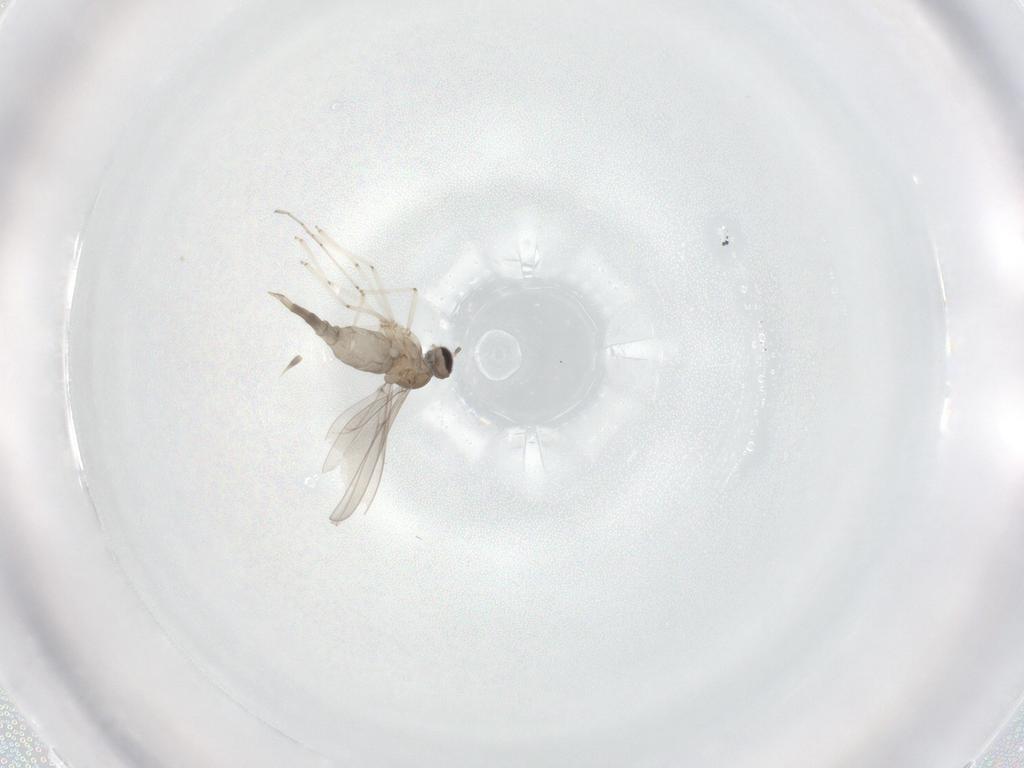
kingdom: Animalia
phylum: Arthropoda
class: Insecta
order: Diptera
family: Cecidomyiidae
